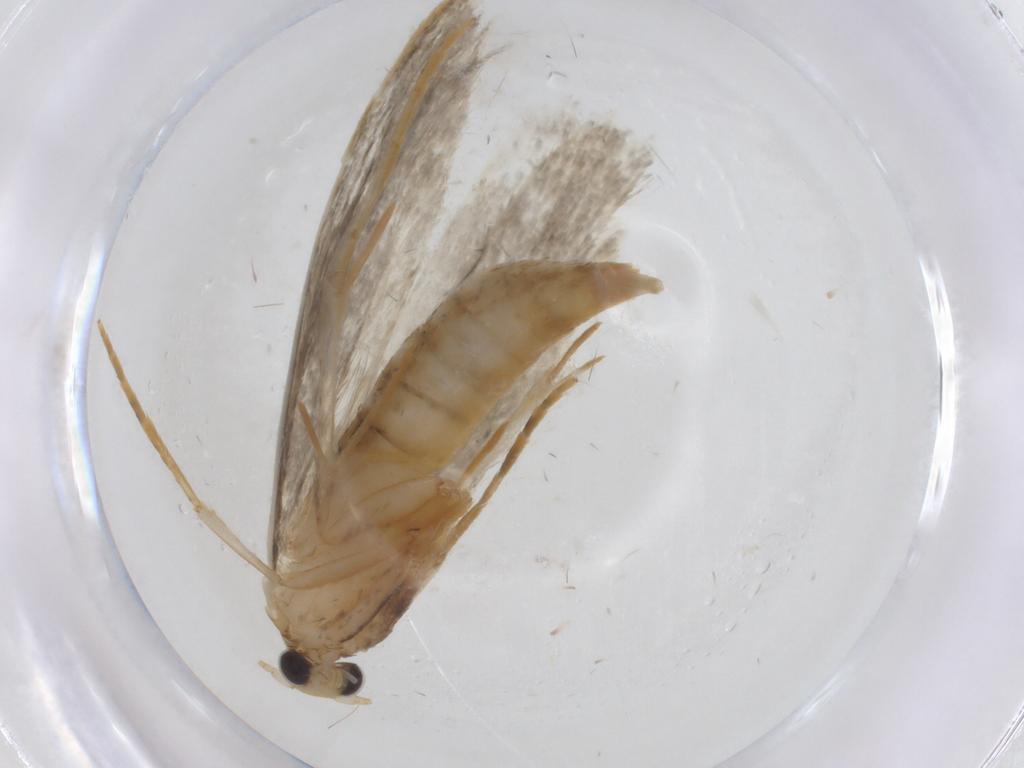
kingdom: Animalia
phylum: Arthropoda
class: Insecta
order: Lepidoptera
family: Tineidae
